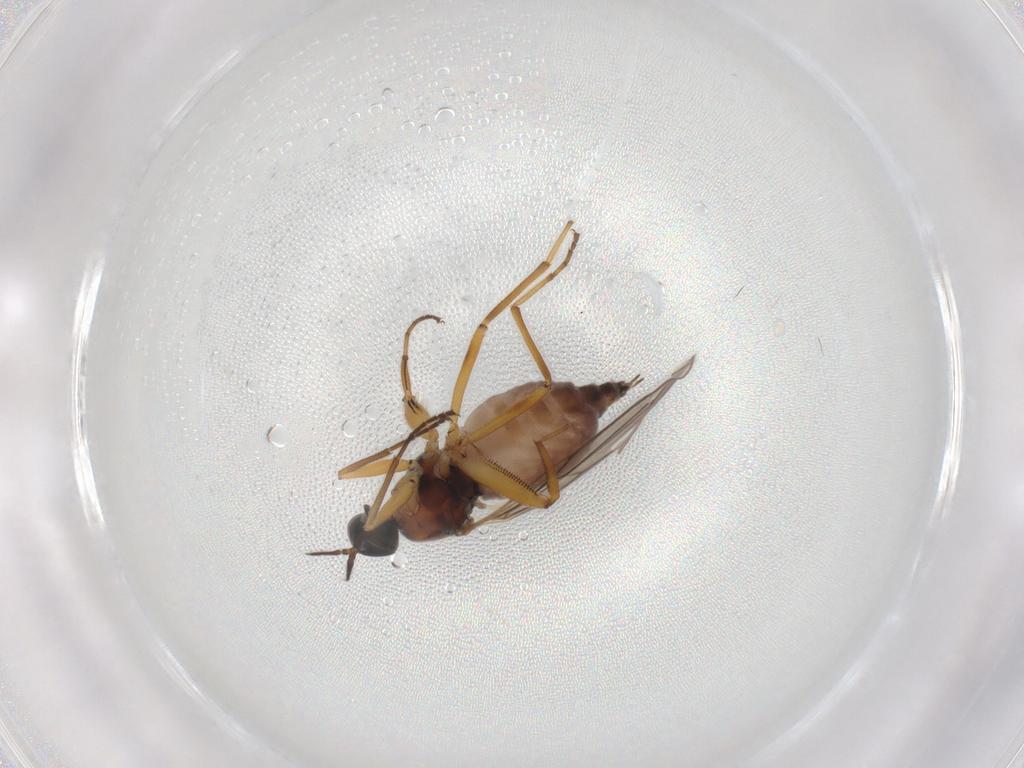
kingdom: Animalia
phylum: Arthropoda
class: Insecta
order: Diptera
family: Hybotidae
